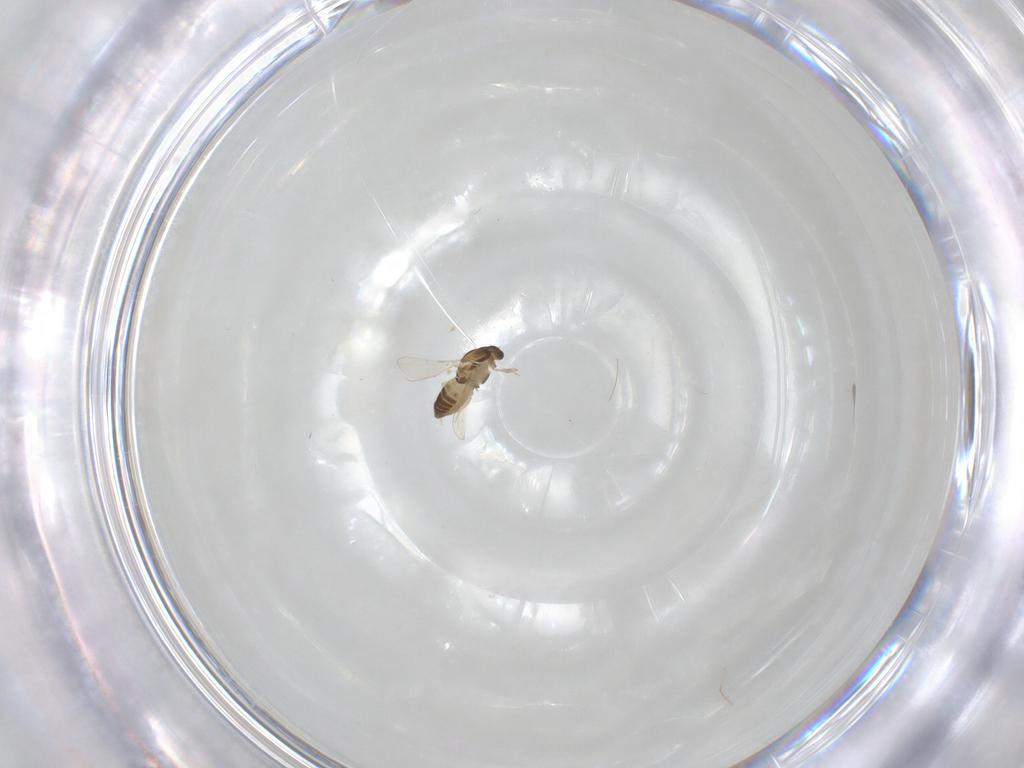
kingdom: Animalia
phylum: Arthropoda
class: Insecta
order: Diptera
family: Chironomidae
